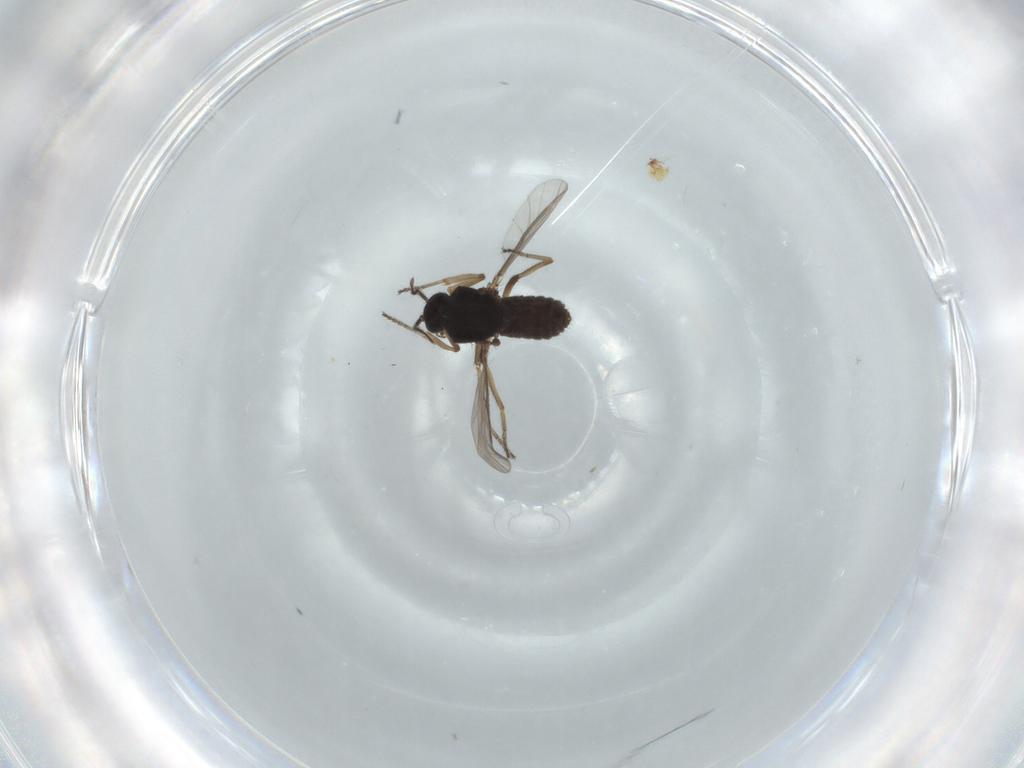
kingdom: Animalia
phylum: Arthropoda
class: Insecta
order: Diptera
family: Ceratopogonidae
